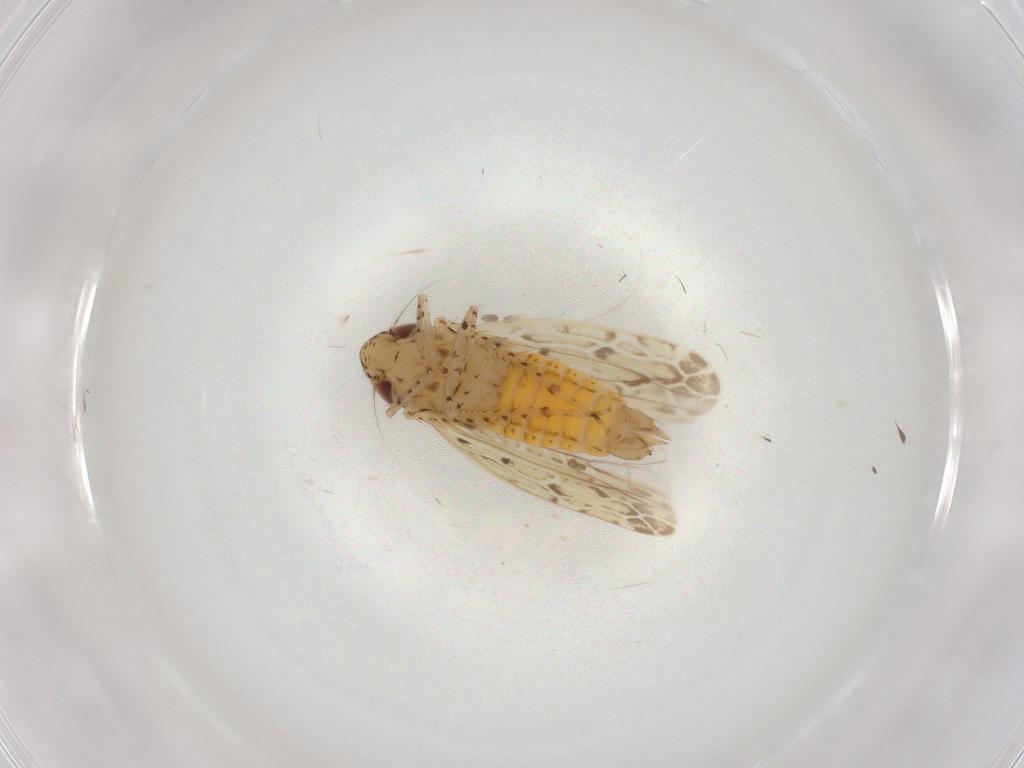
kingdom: Animalia
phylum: Arthropoda
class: Insecta
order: Hemiptera
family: Cicadellidae
